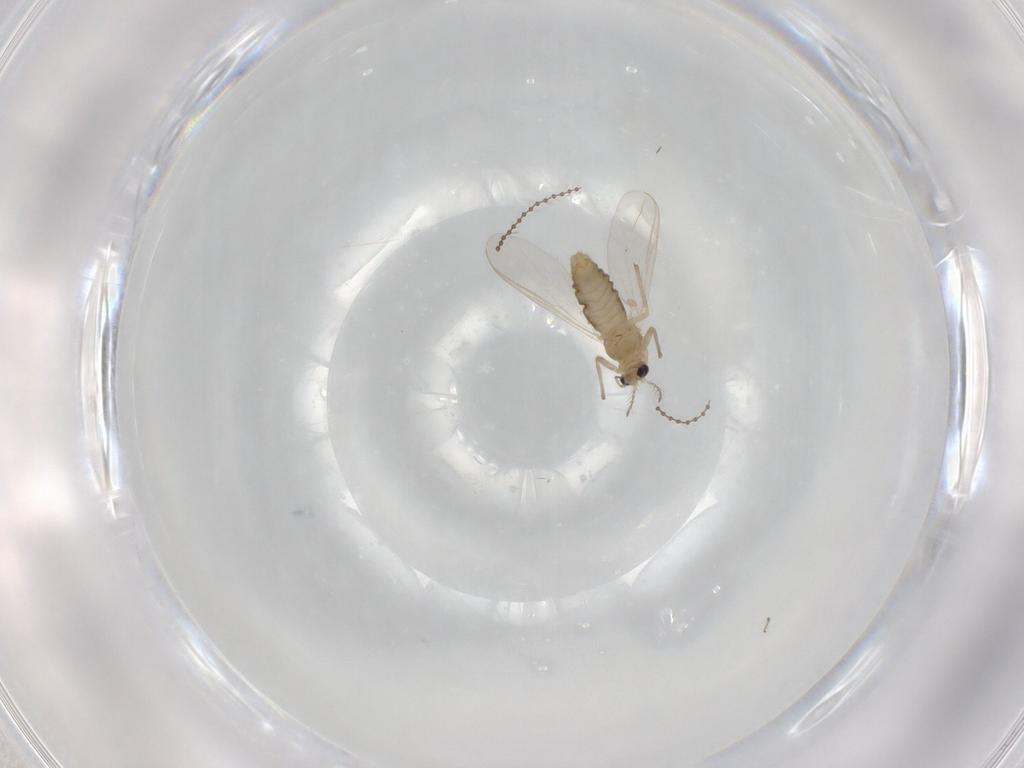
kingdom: Animalia
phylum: Arthropoda
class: Insecta
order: Diptera
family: Chironomidae
